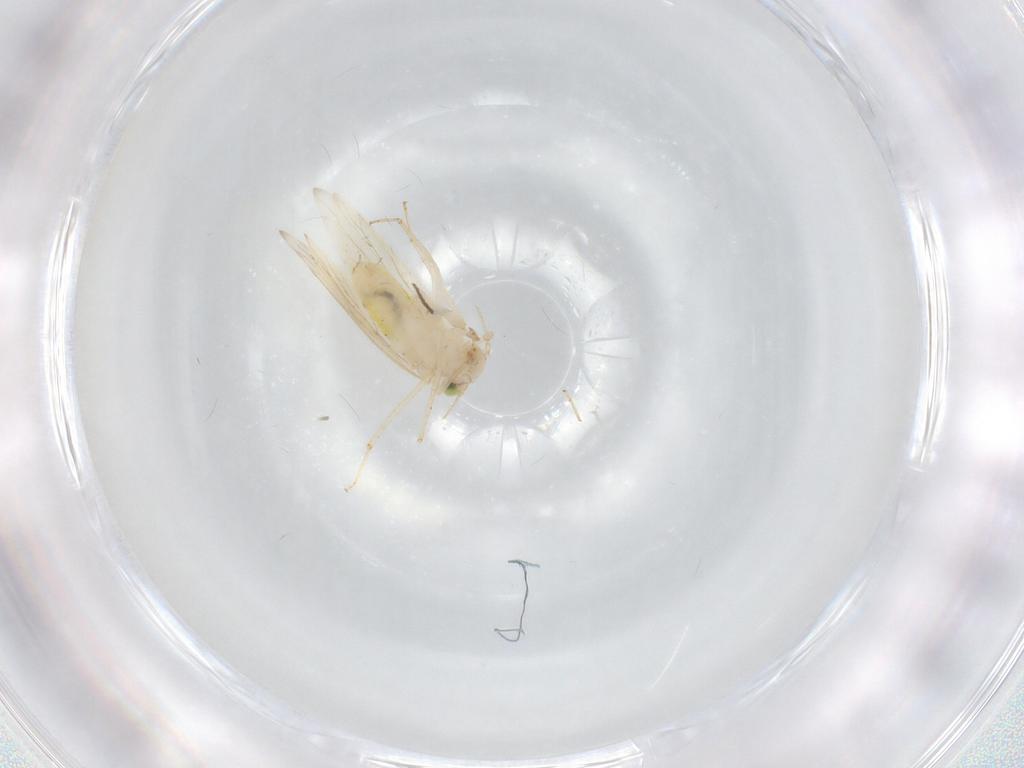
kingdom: Animalia
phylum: Arthropoda
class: Insecta
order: Psocodea
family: Lepidopsocidae
